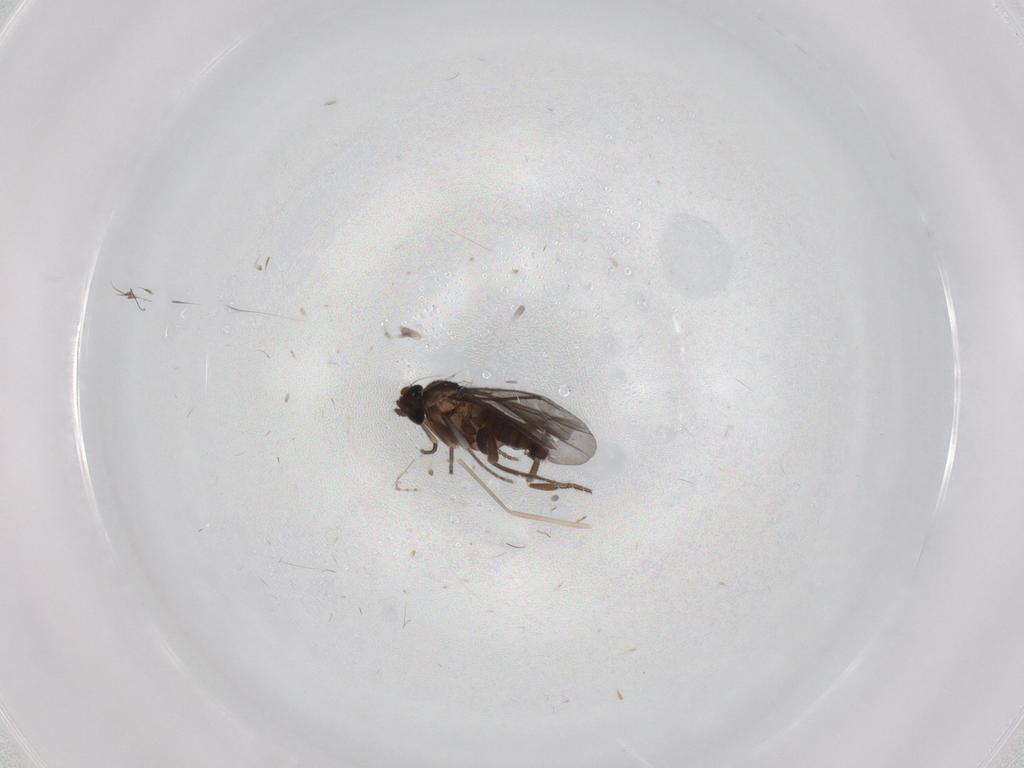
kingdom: Animalia
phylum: Arthropoda
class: Insecta
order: Diptera
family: Cecidomyiidae
